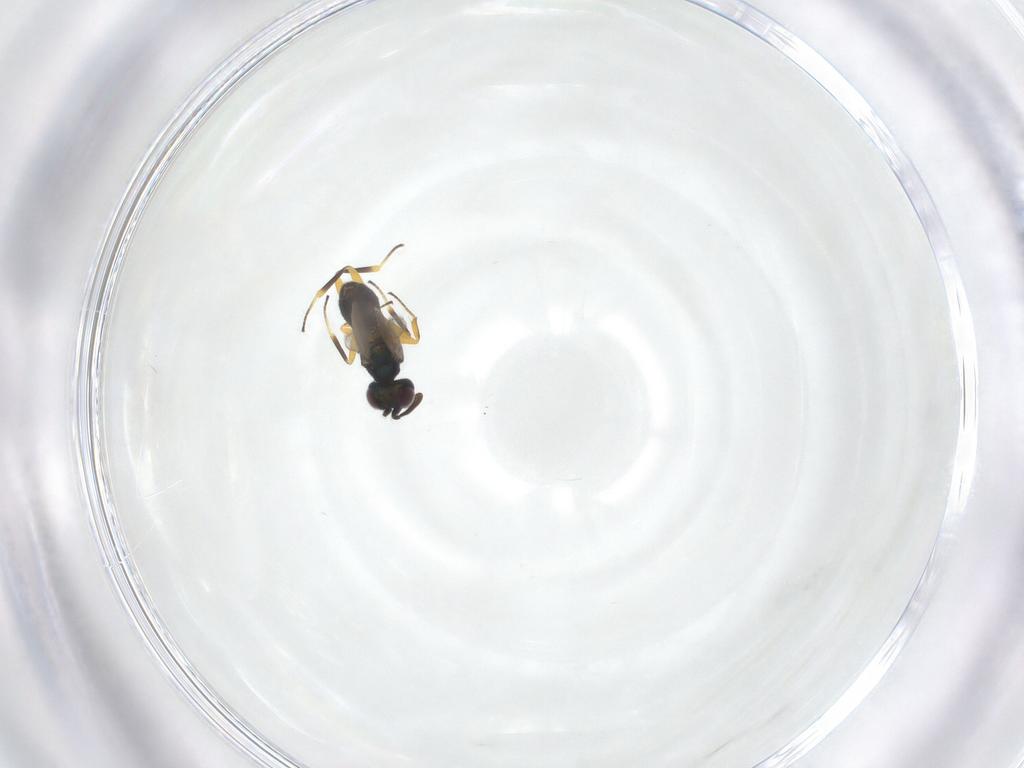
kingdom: Animalia
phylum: Arthropoda
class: Insecta
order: Hymenoptera
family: Eupelmidae
